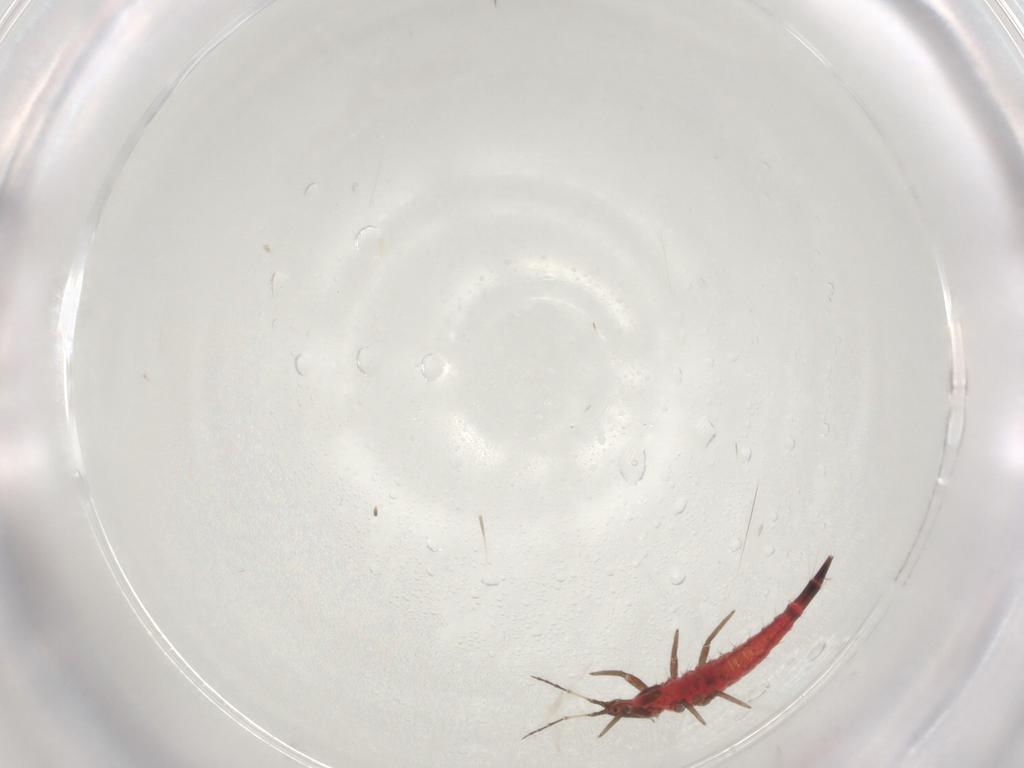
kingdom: Animalia
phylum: Arthropoda
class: Insecta
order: Thysanoptera
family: Phlaeothripidae
